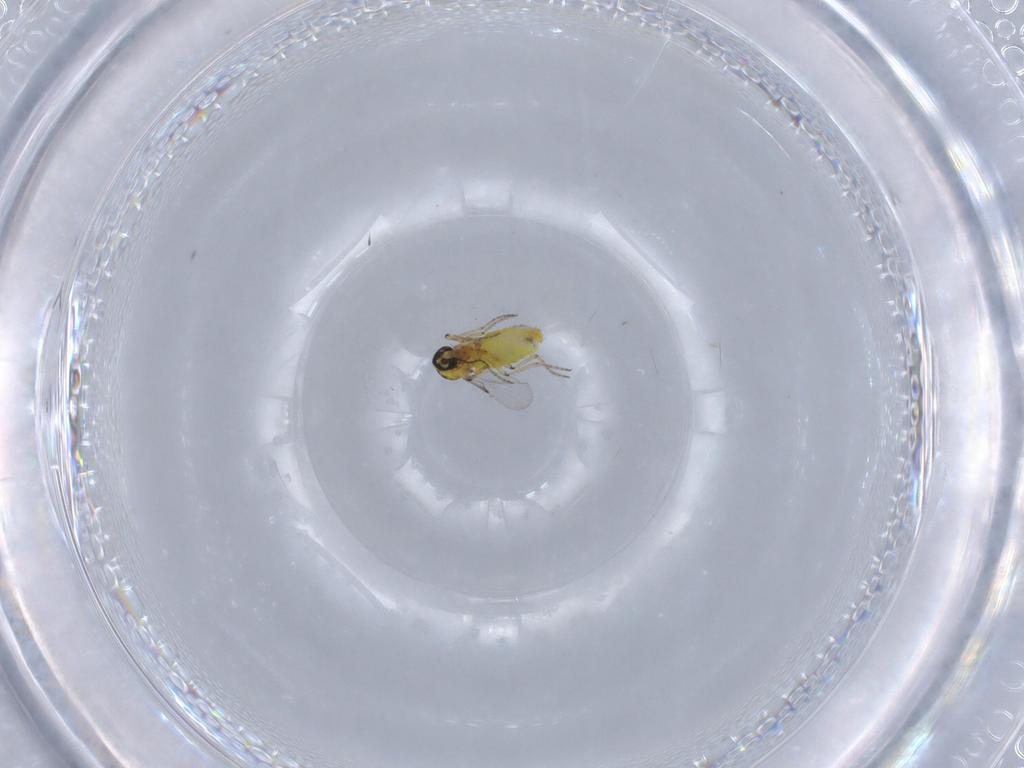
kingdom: Animalia
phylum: Arthropoda
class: Insecta
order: Diptera
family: Ceratopogonidae
